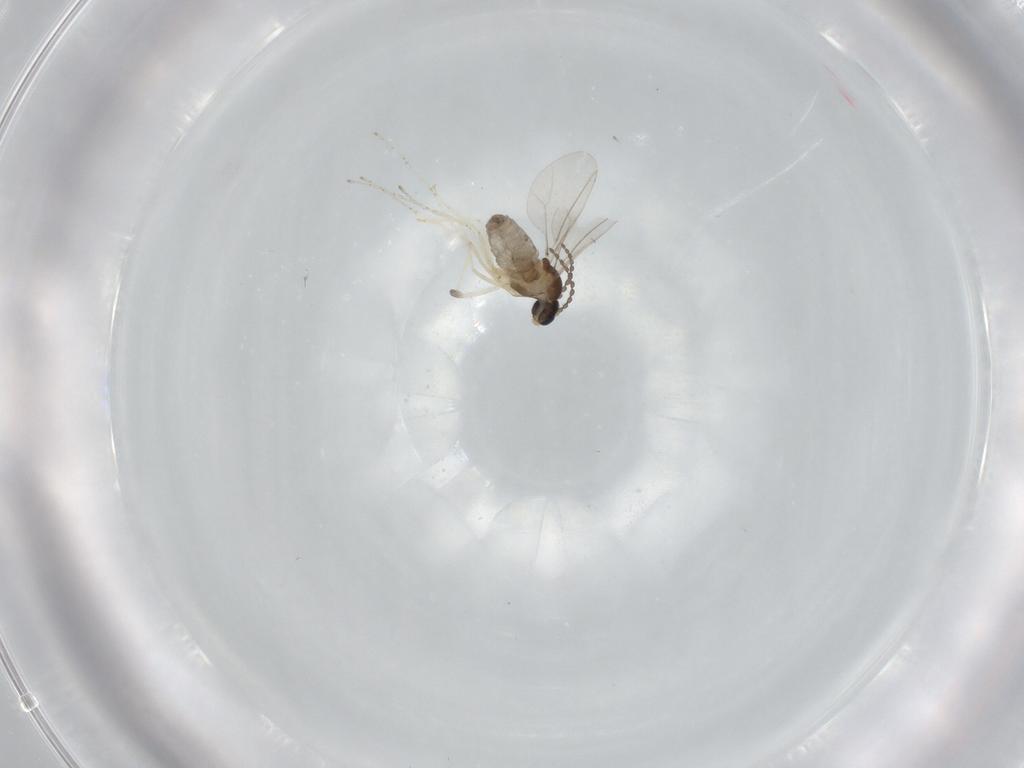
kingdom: Animalia
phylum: Arthropoda
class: Insecta
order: Diptera
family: Cecidomyiidae
